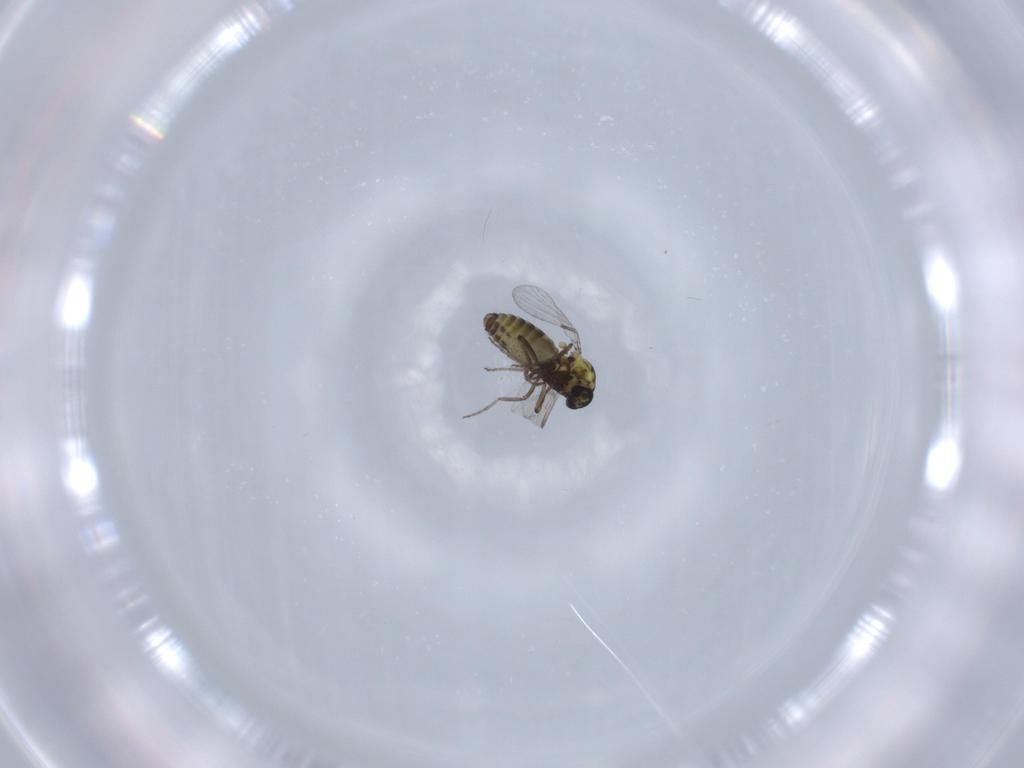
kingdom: Animalia
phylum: Arthropoda
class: Insecta
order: Diptera
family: Ceratopogonidae
